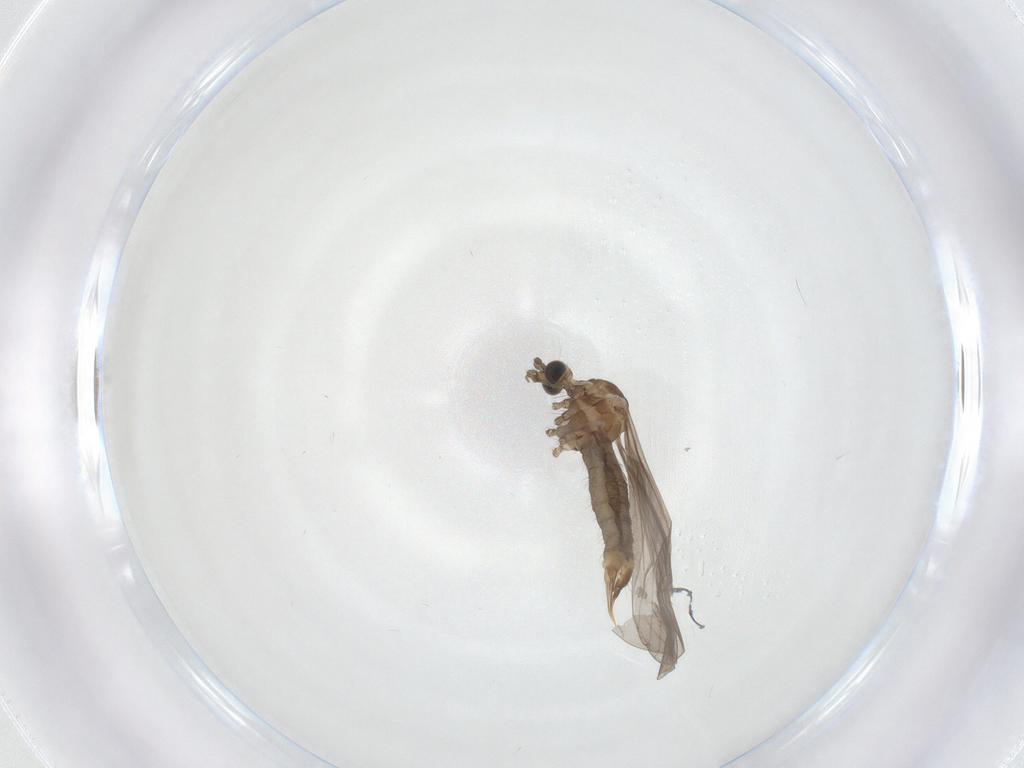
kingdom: Animalia
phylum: Arthropoda
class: Insecta
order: Diptera
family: Limoniidae
